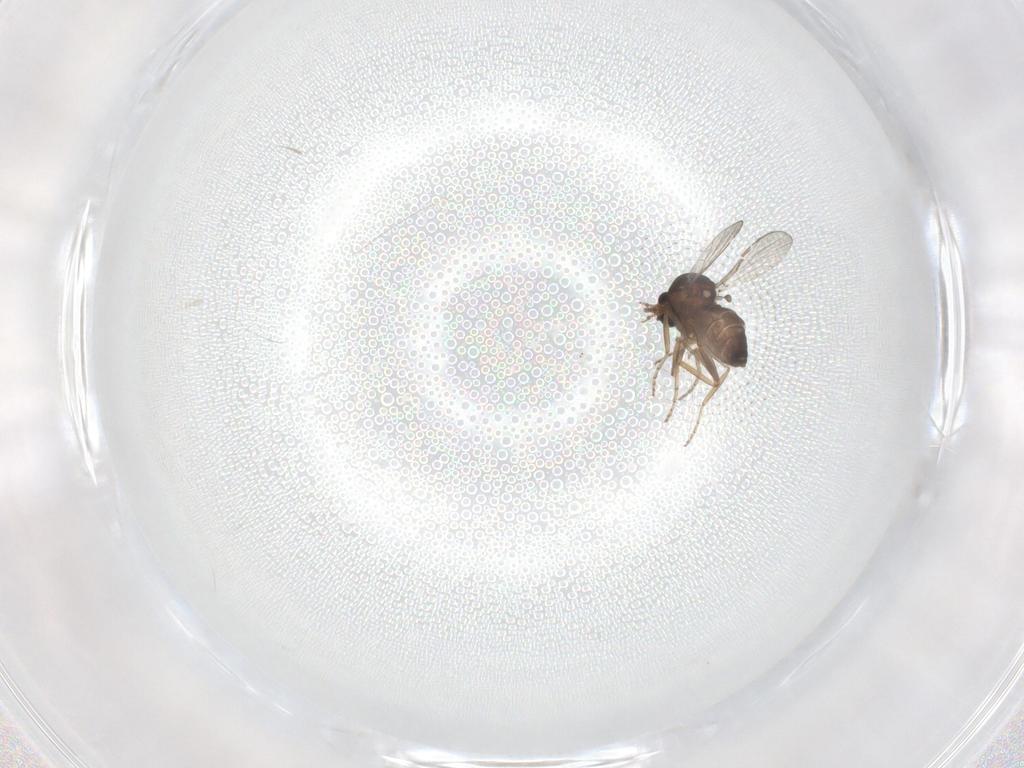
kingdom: Animalia
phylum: Arthropoda
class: Insecta
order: Diptera
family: Ceratopogonidae
